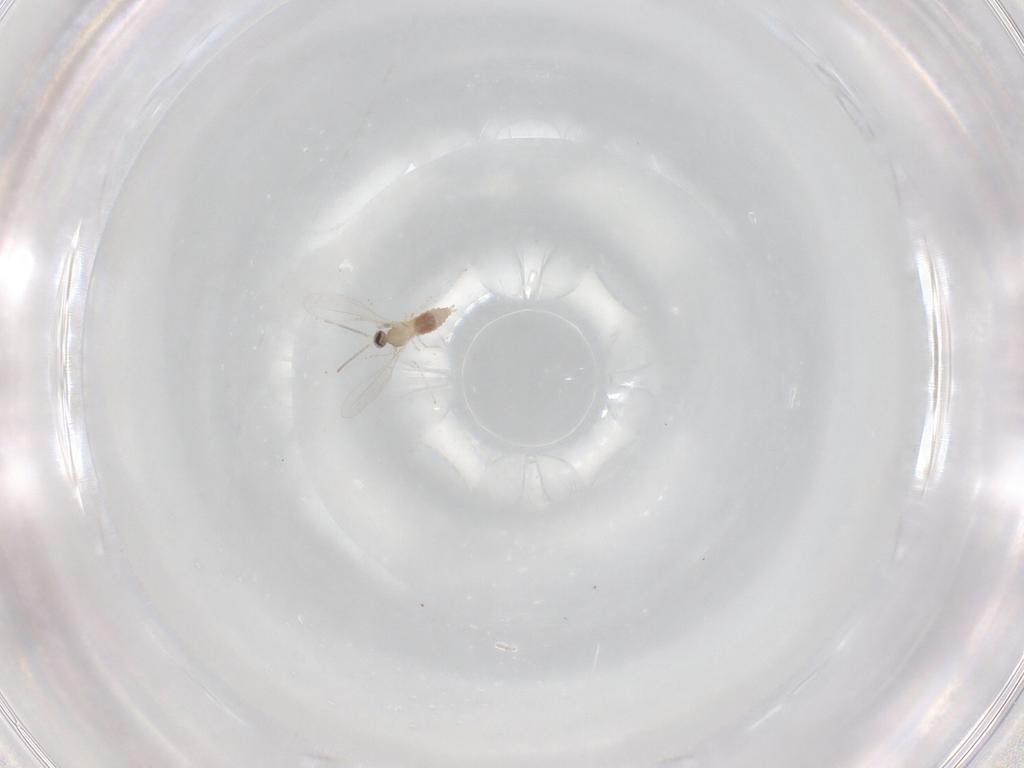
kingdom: Animalia
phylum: Arthropoda
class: Insecta
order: Diptera
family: Cecidomyiidae
